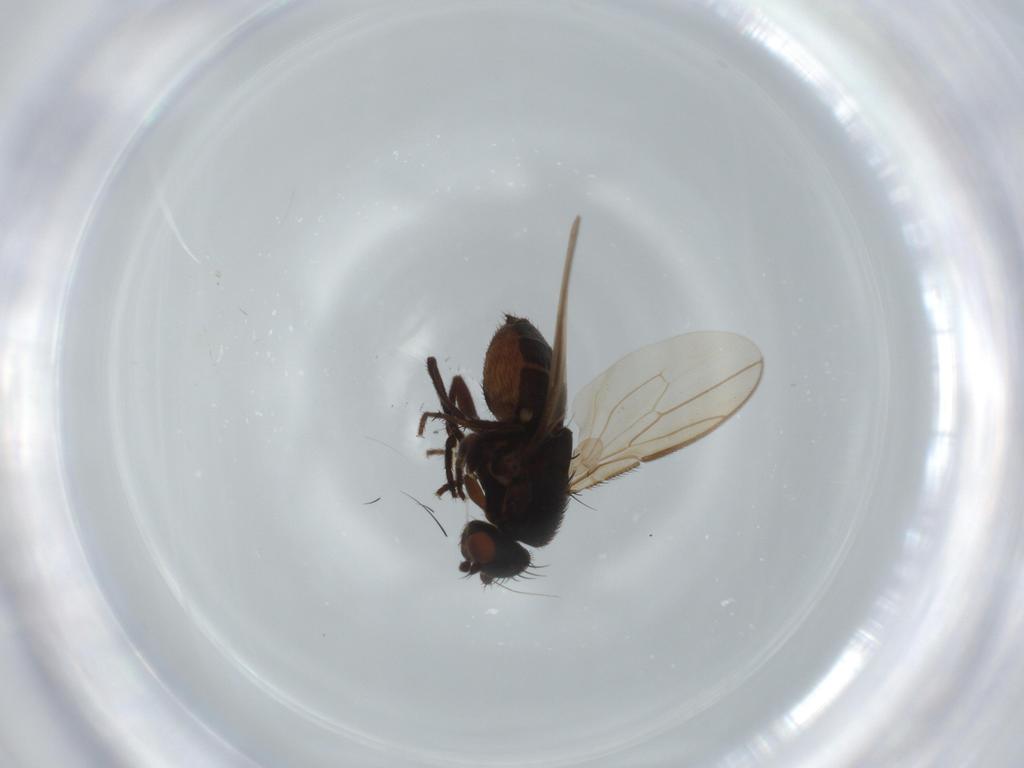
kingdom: Animalia
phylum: Arthropoda
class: Insecta
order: Diptera
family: Sphaeroceridae
